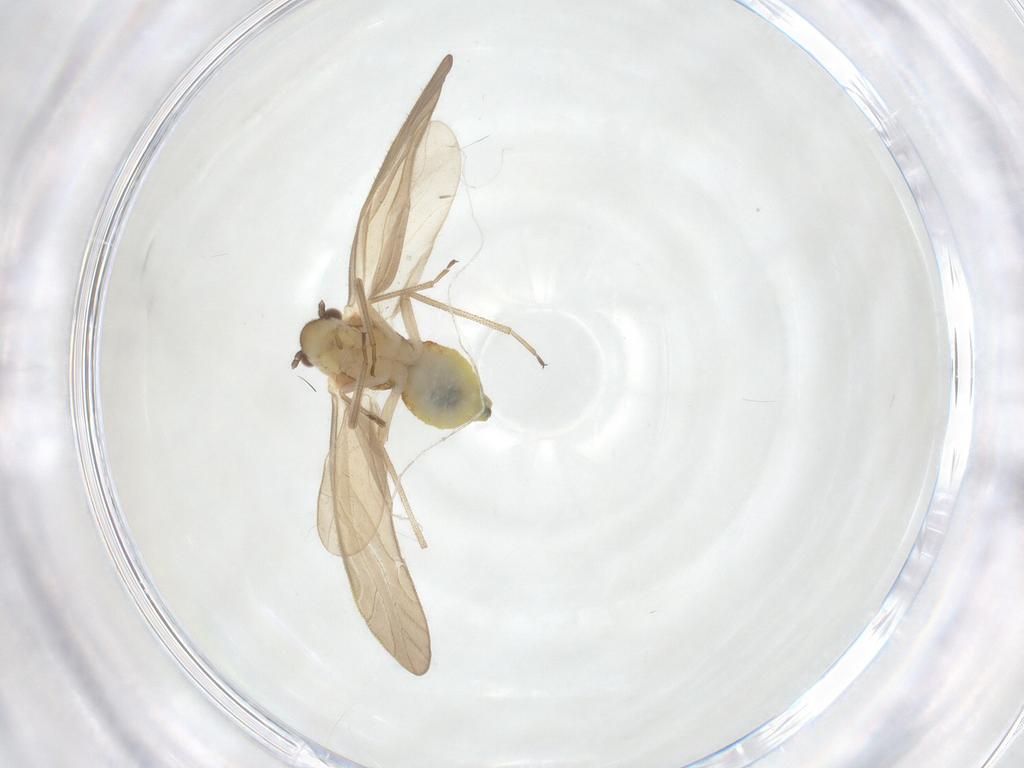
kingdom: Animalia
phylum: Arthropoda
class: Insecta
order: Psocodea
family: Caeciliusidae
